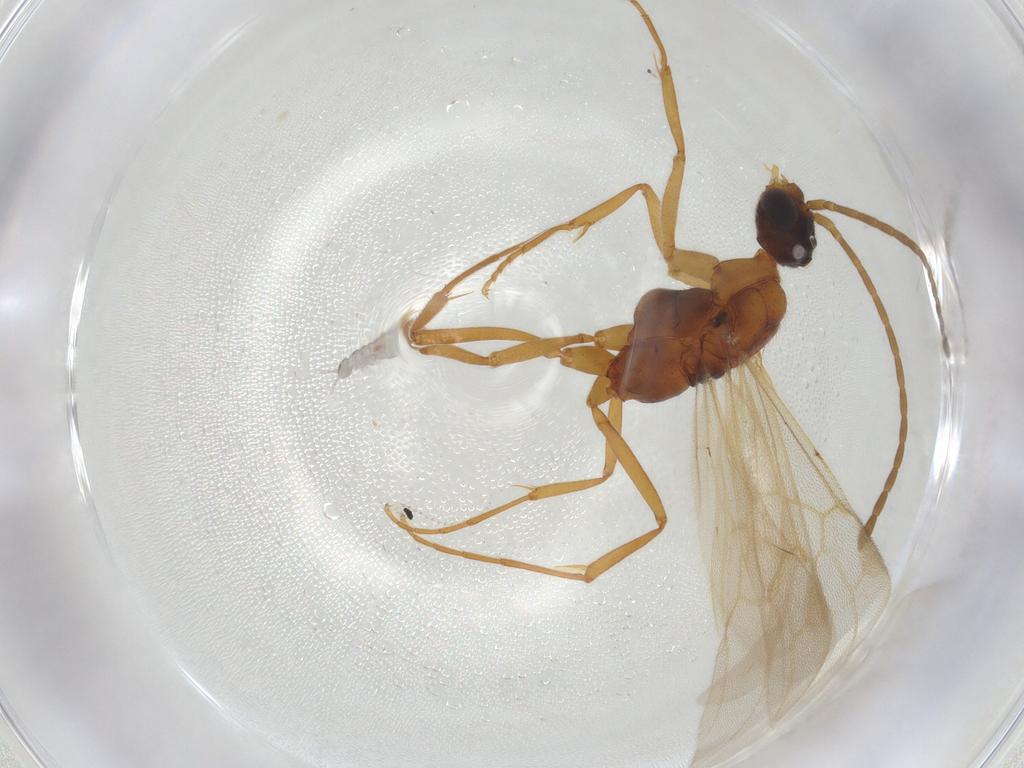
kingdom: Animalia
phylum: Arthropoda
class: Insecta
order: Hymenoptera
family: Formicidae
